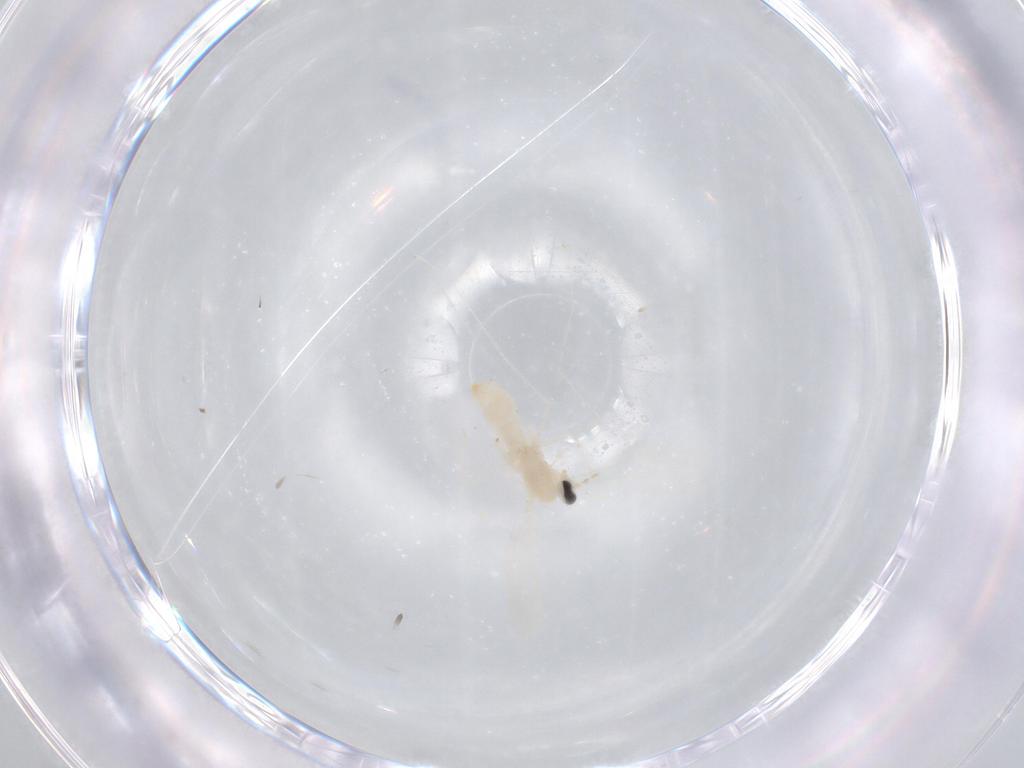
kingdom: Animalia
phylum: Arthropoda
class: Insecta
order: Diptera
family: Cecidomyiidae
